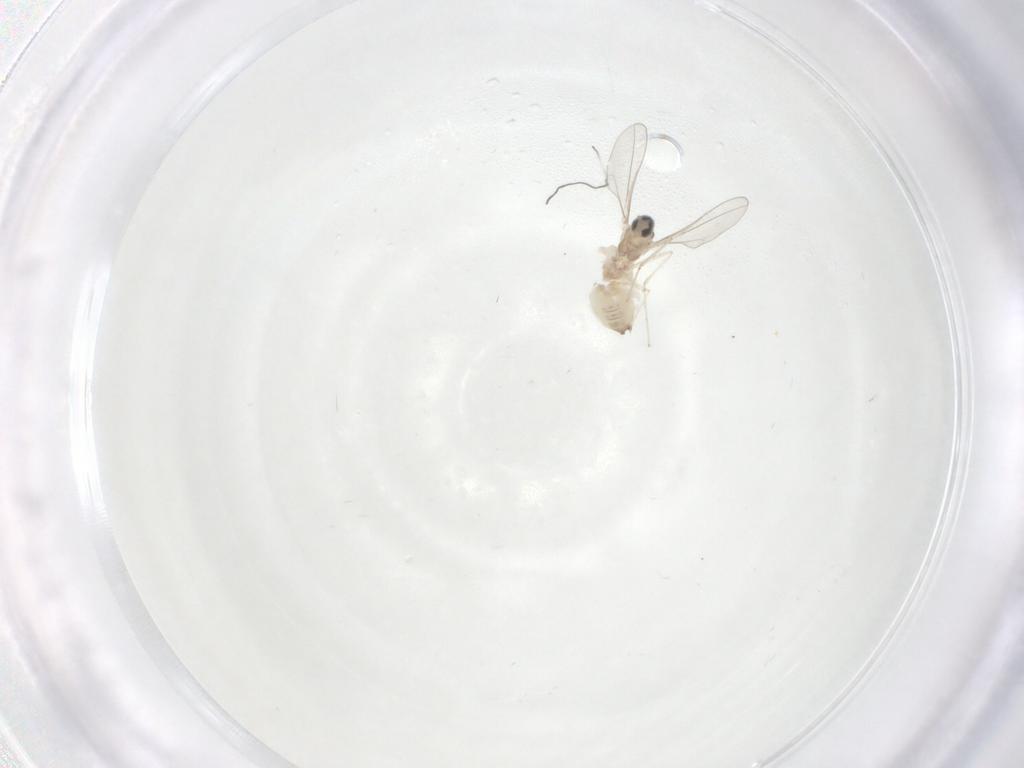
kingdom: Animalia
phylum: Arthropoda
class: Insecta
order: Diptera
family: Cecidomyiidae
